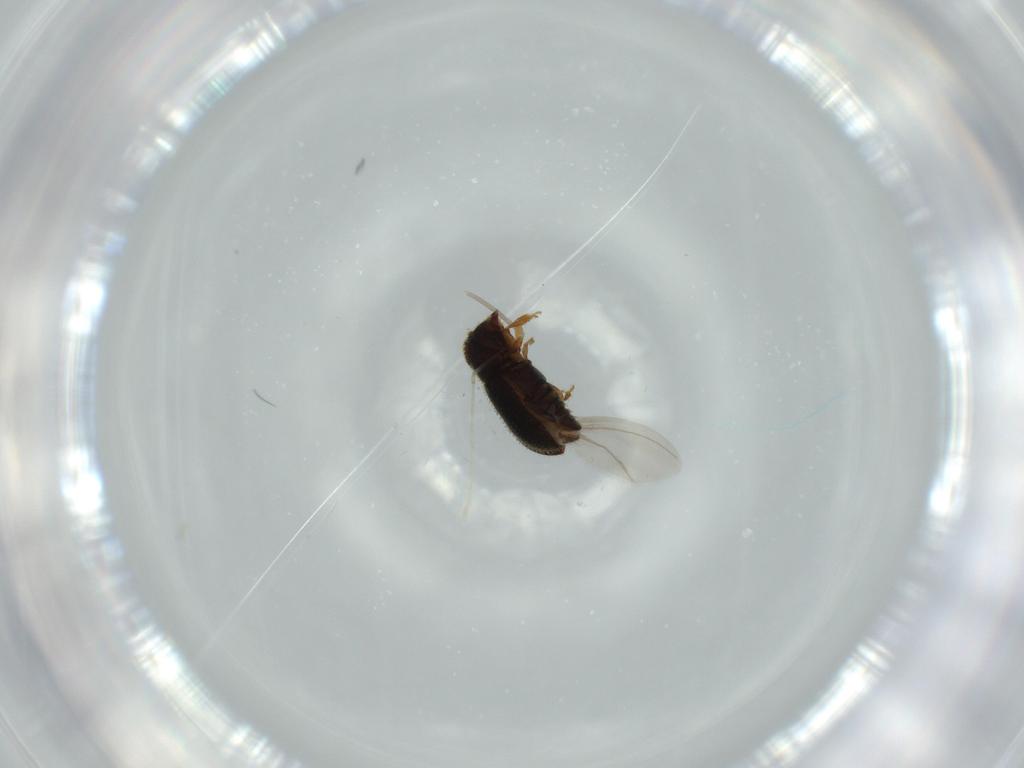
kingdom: Animalia
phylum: Arthropoda
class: Insecta
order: Coleoptera
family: Curculionidae
